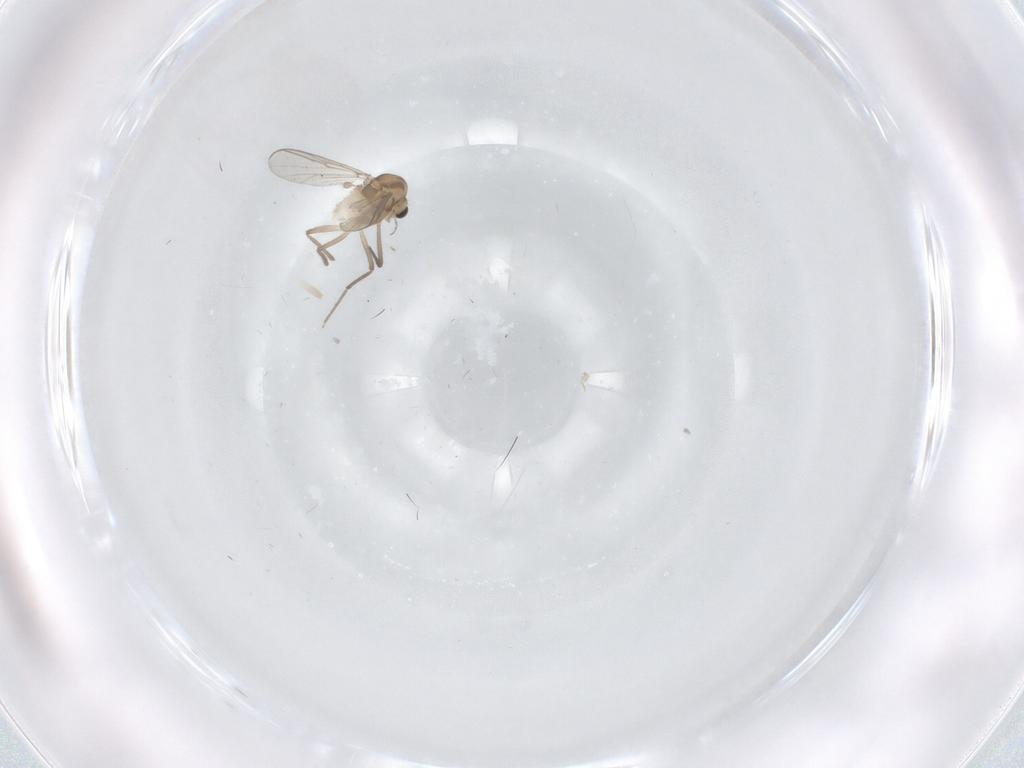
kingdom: Animalia
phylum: Arthropoda
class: Insecta
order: Diptera
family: Chironomidae
